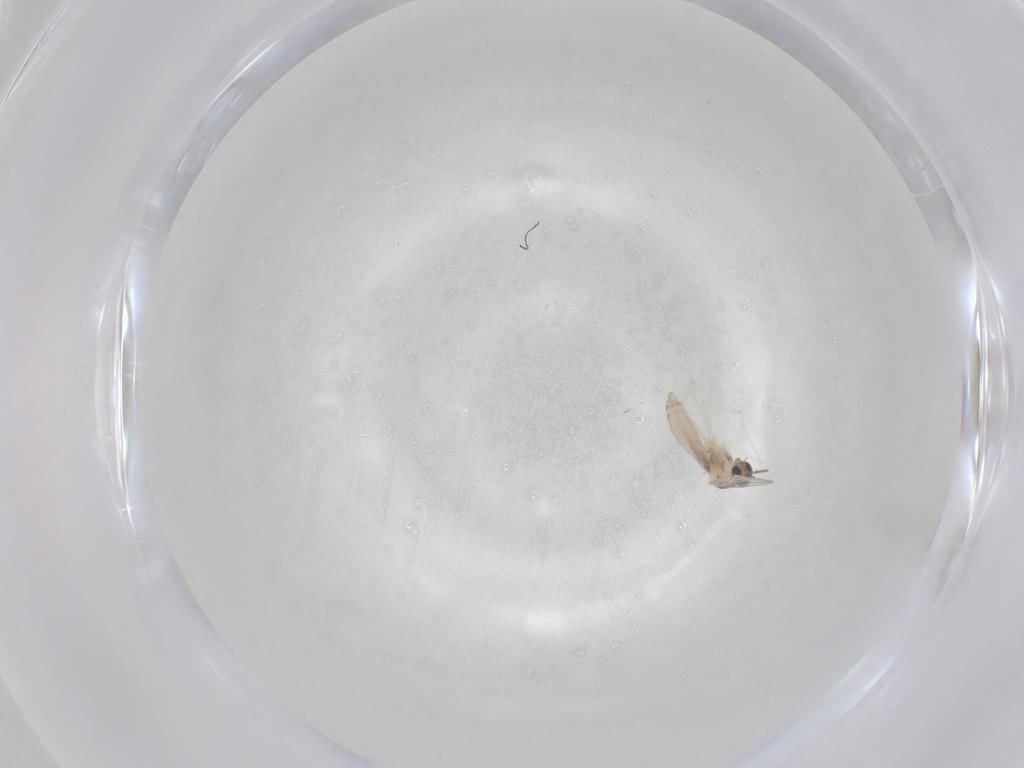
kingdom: Animalia
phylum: Arthropoda
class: Insecta
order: Diptera
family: Cecidomyiidae
